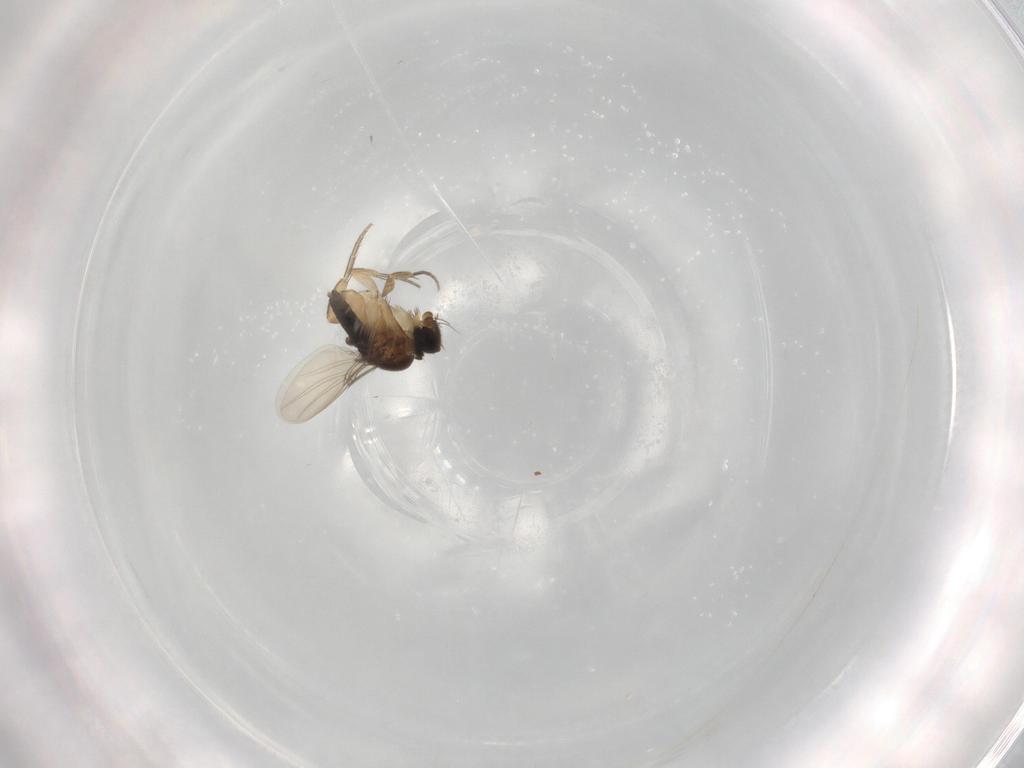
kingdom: Animalia
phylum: Arthropoda
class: Insecta
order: Diptera
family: Phoridae
